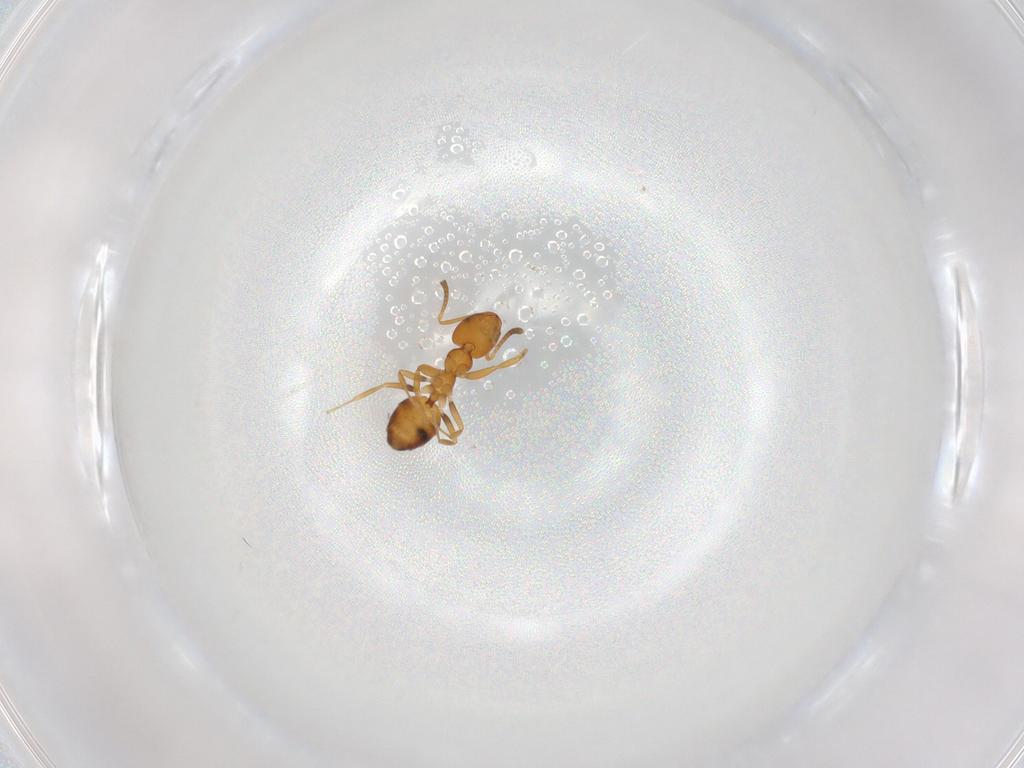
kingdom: Animalia
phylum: Arthropoda
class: Insecta
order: Hymenoptera
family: Formicidae
